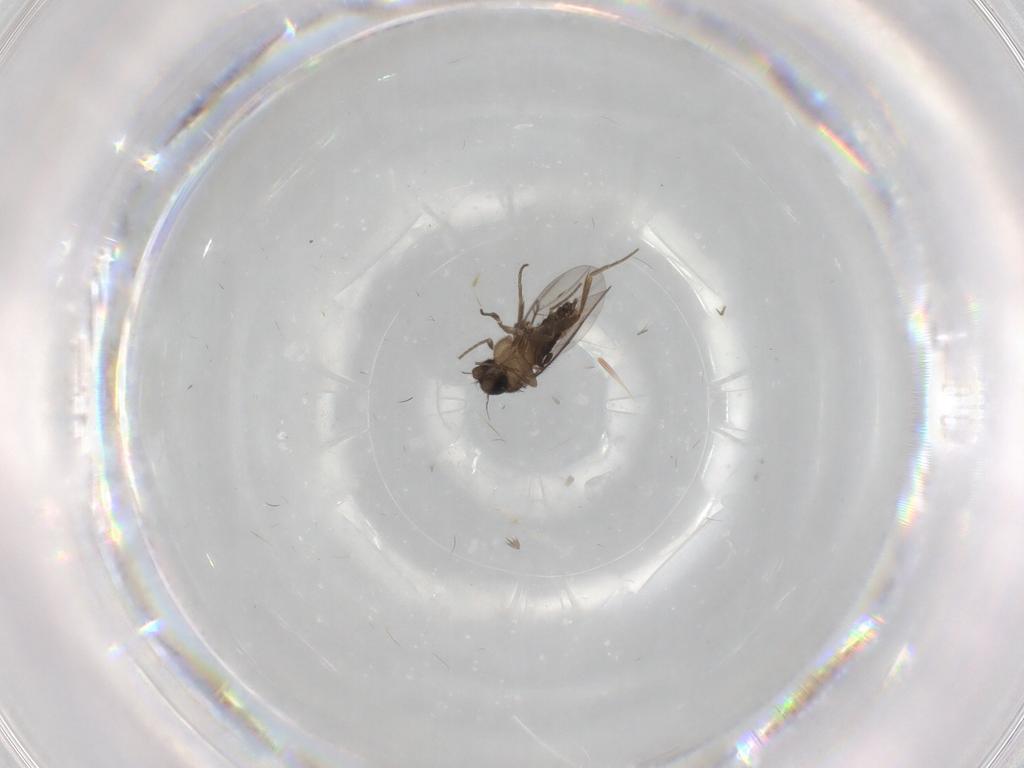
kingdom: Animalia
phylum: Arthropoda
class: Insecta
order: Diptera
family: Phoridae
